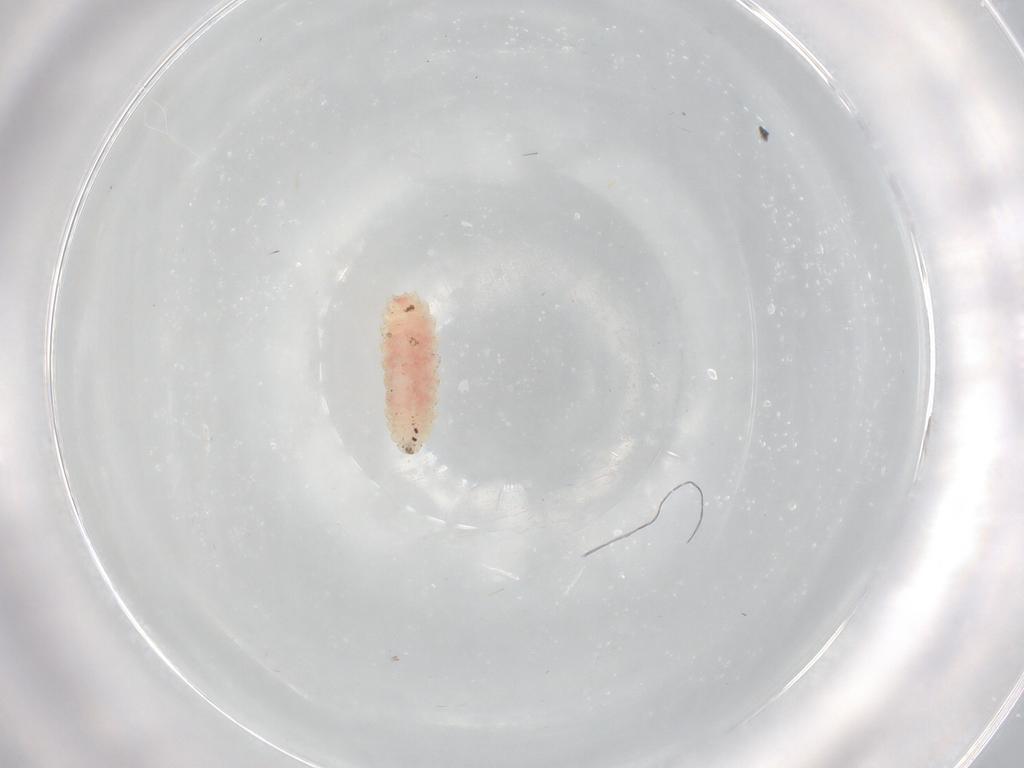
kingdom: Animalia
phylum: Arthropoda
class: Insecta
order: Diptera
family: Chironomidae
